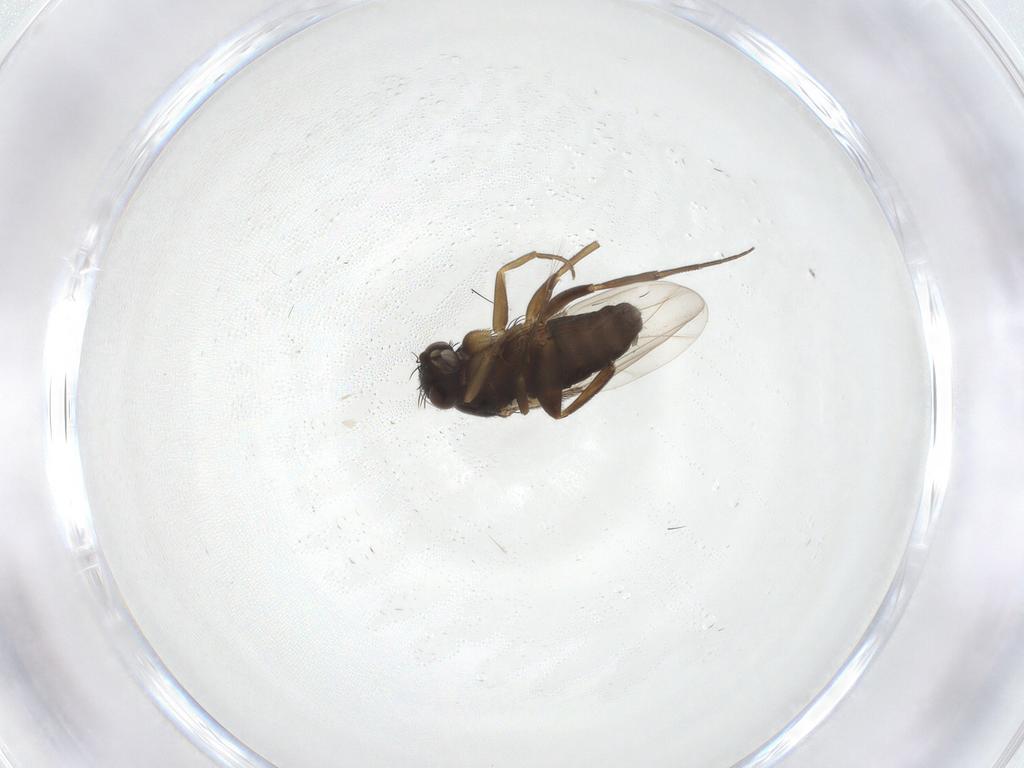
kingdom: Animalia
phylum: Arthropoda
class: Insecta
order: Diptera
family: Phoridae
